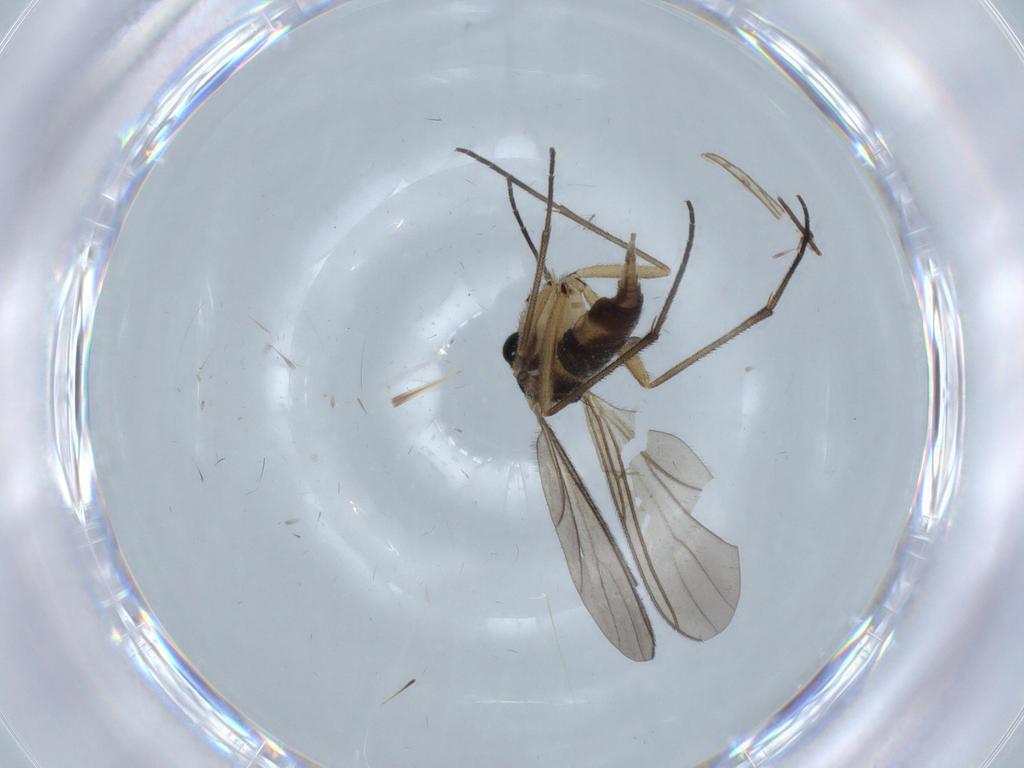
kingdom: Animalia
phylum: Arthropoda
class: Insecta
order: Diptera
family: Sciaridae
